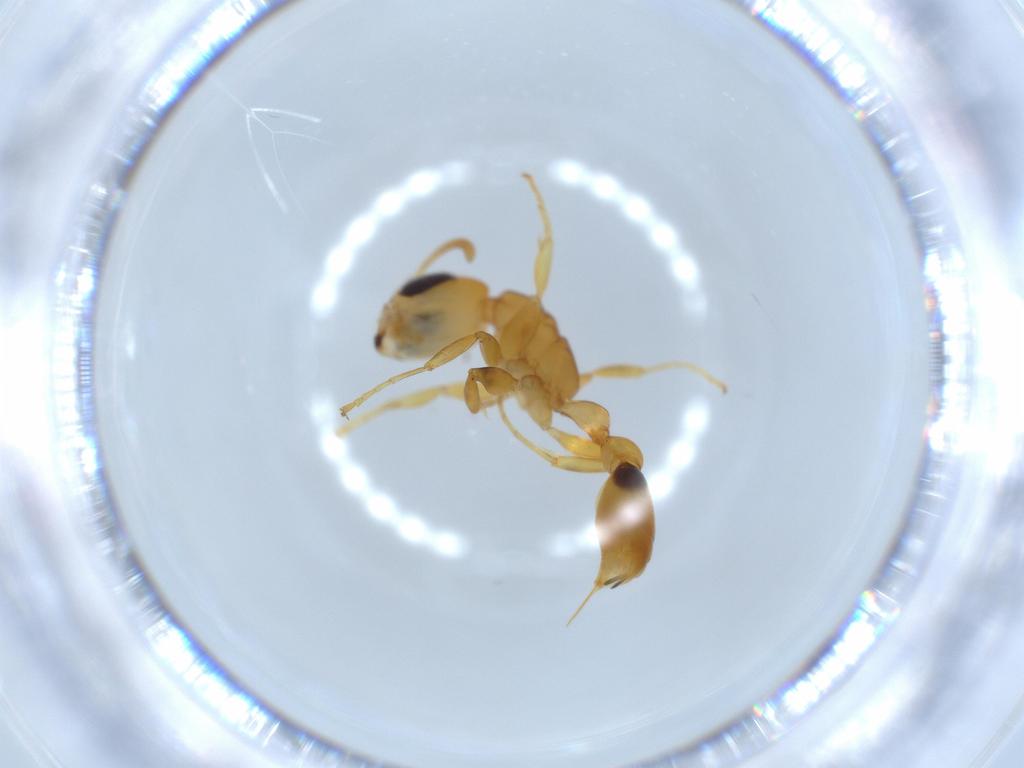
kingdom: Animalia
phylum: Arthropoda
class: Insecta
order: Hymenoptera
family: Formicidae
